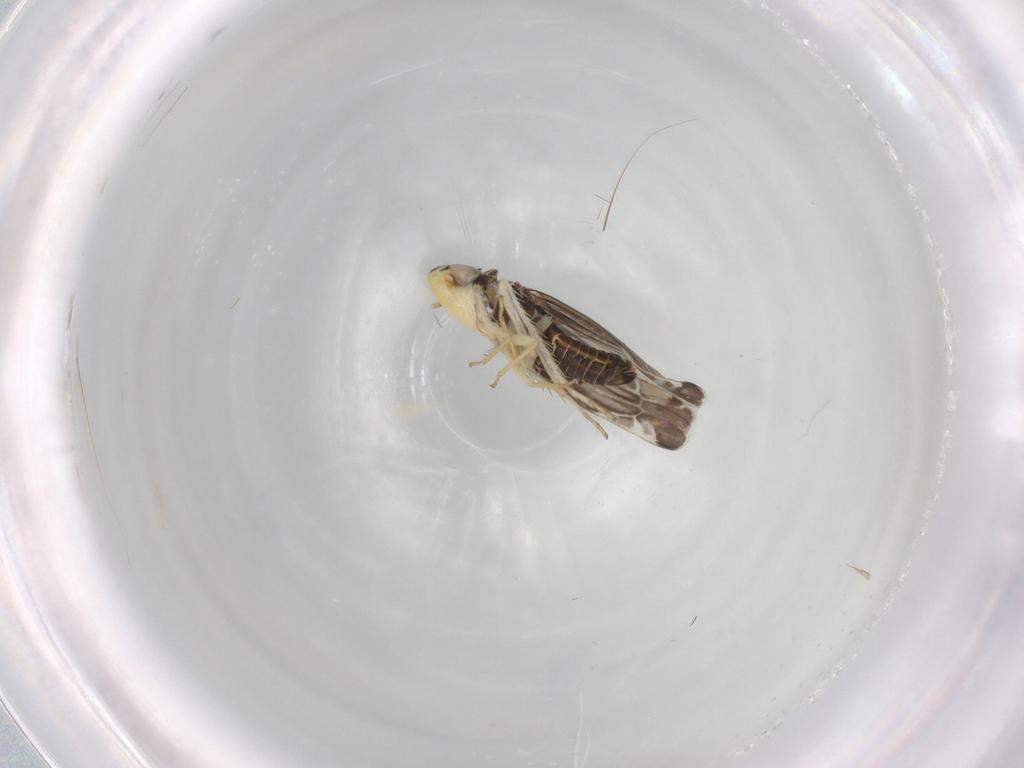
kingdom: Animalia
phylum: Arthropoda
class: Insecta
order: Hemiptera
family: Cicadellidae
